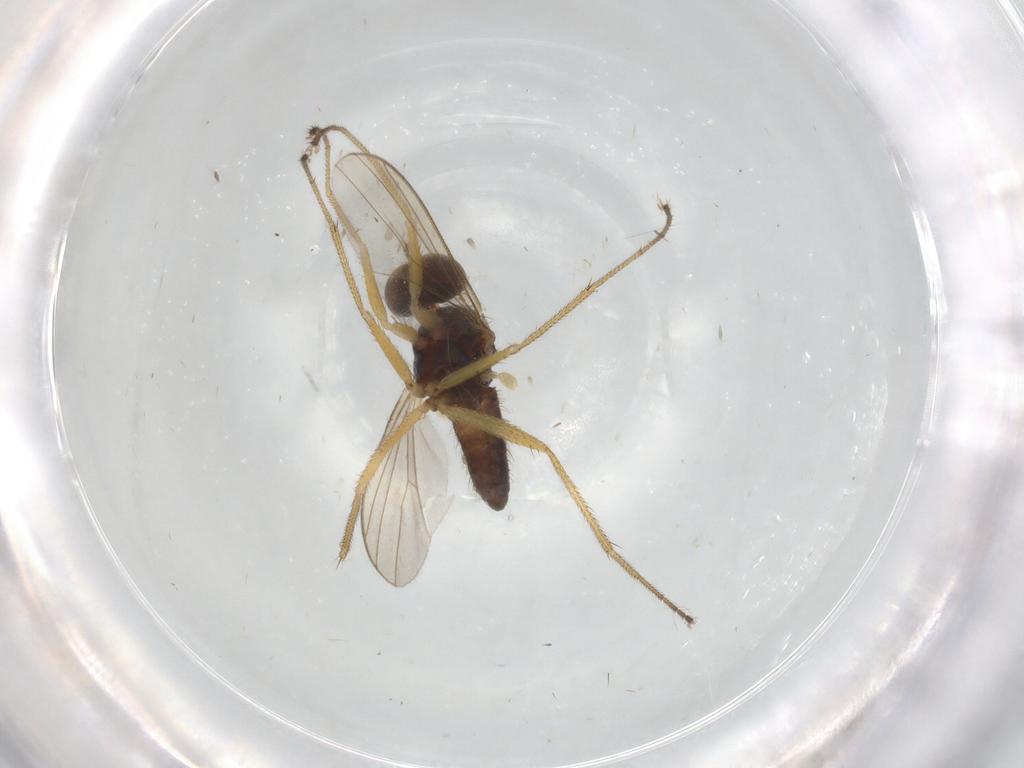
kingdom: Animalia
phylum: Arthropoda
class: Insecta
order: Diptera
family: Dolichopodidae
